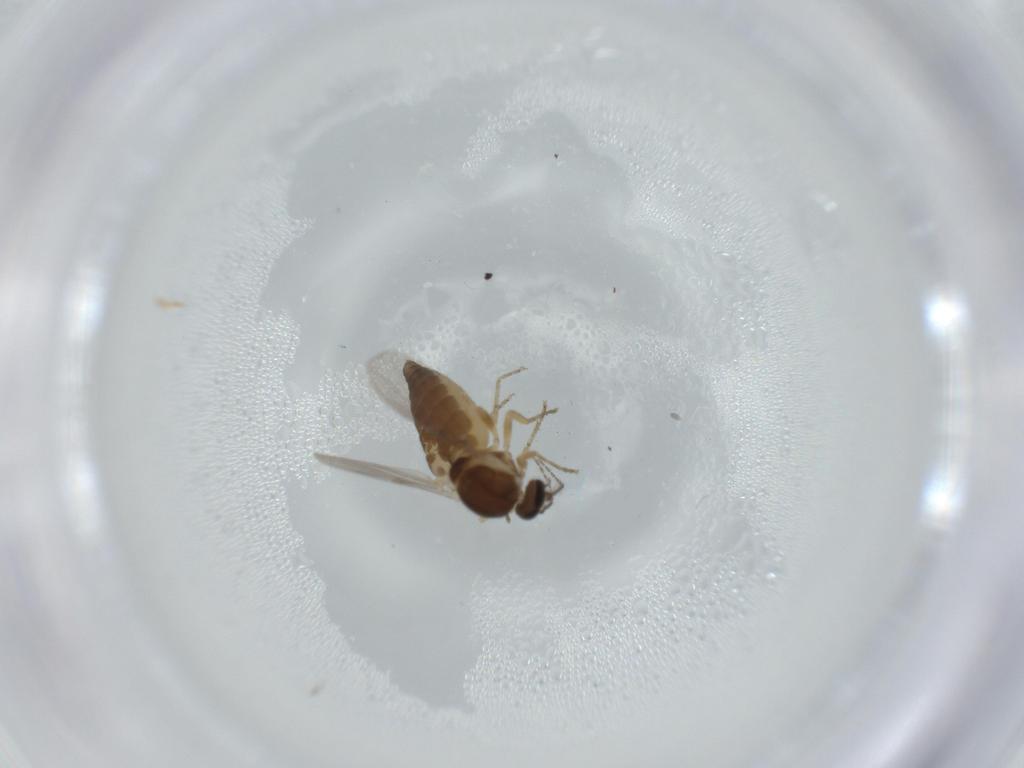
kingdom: Animalia
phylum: Arthropoda
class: Insecta
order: Diptera
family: Ceratopogonidae
